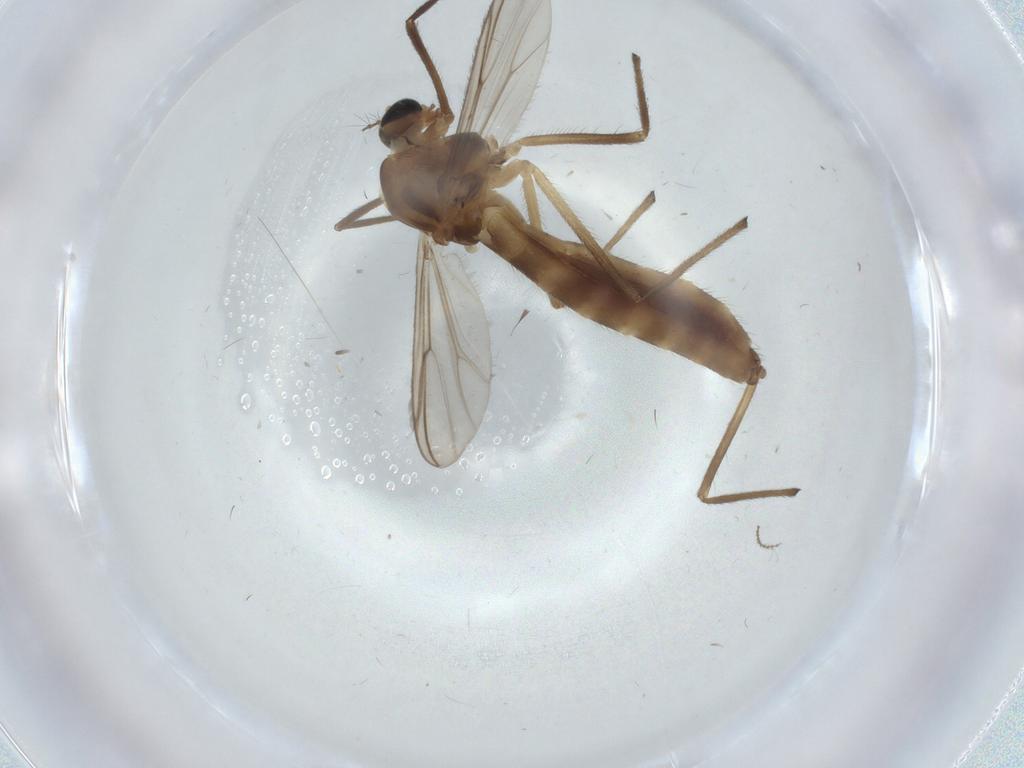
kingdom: Animalia
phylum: Arthropoda
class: Insecta
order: Diptera
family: Chironomidae
